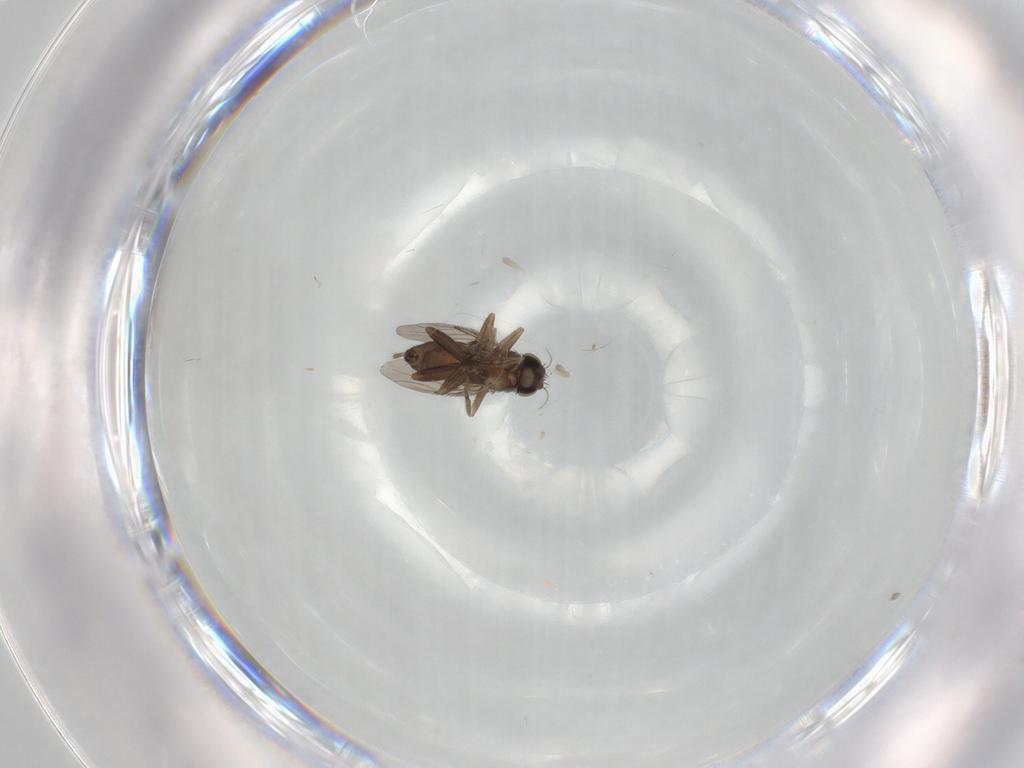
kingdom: Animalia
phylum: Arthropoda
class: Insecta
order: Diptera
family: Phoridae
